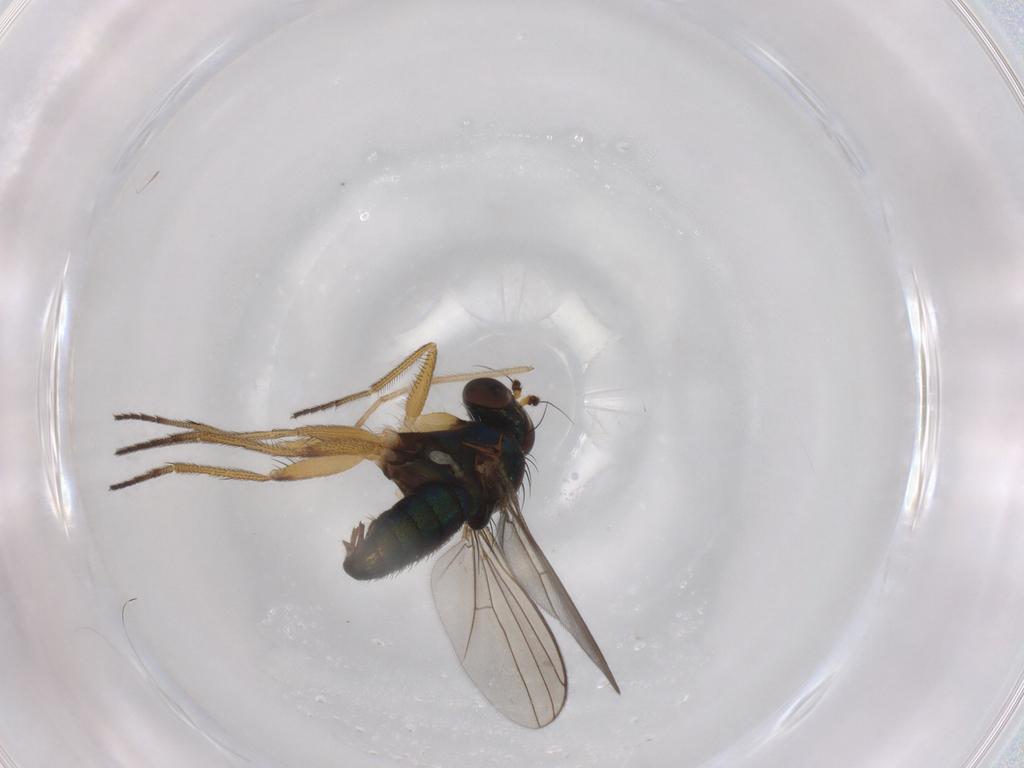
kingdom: Animalia
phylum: Arthropoda
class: Insecta
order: Diptera
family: Dolichopodidae
